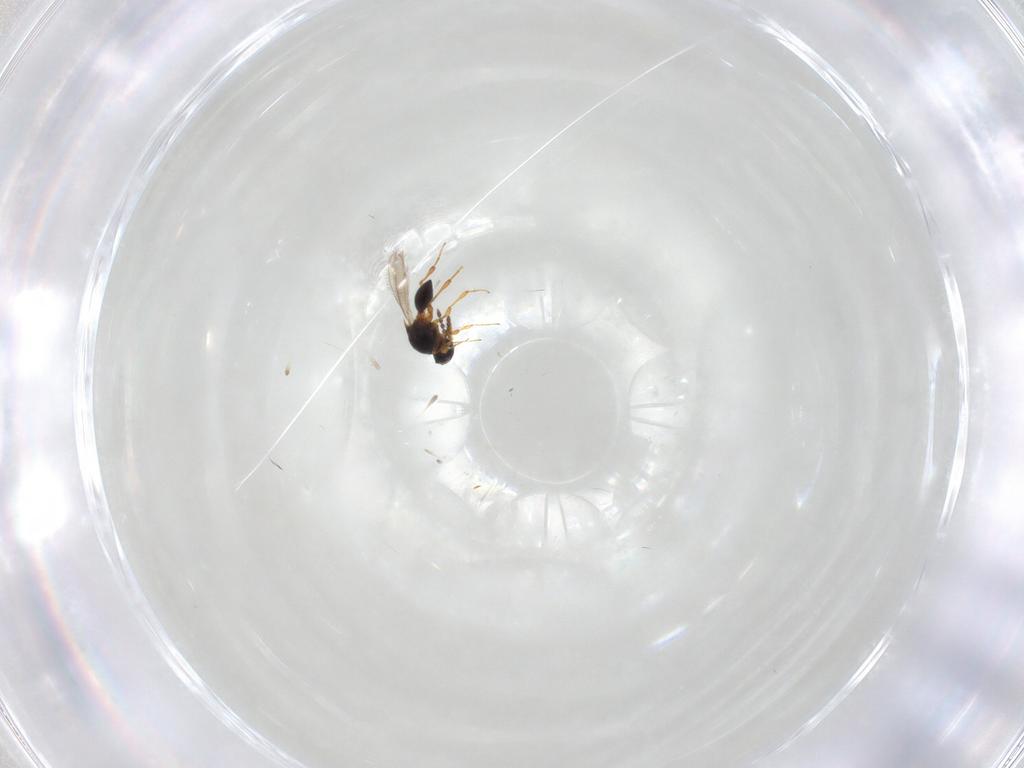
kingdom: Animalia
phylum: Arthropoda
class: Insecta
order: Hymenoptera
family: Platygastridae
